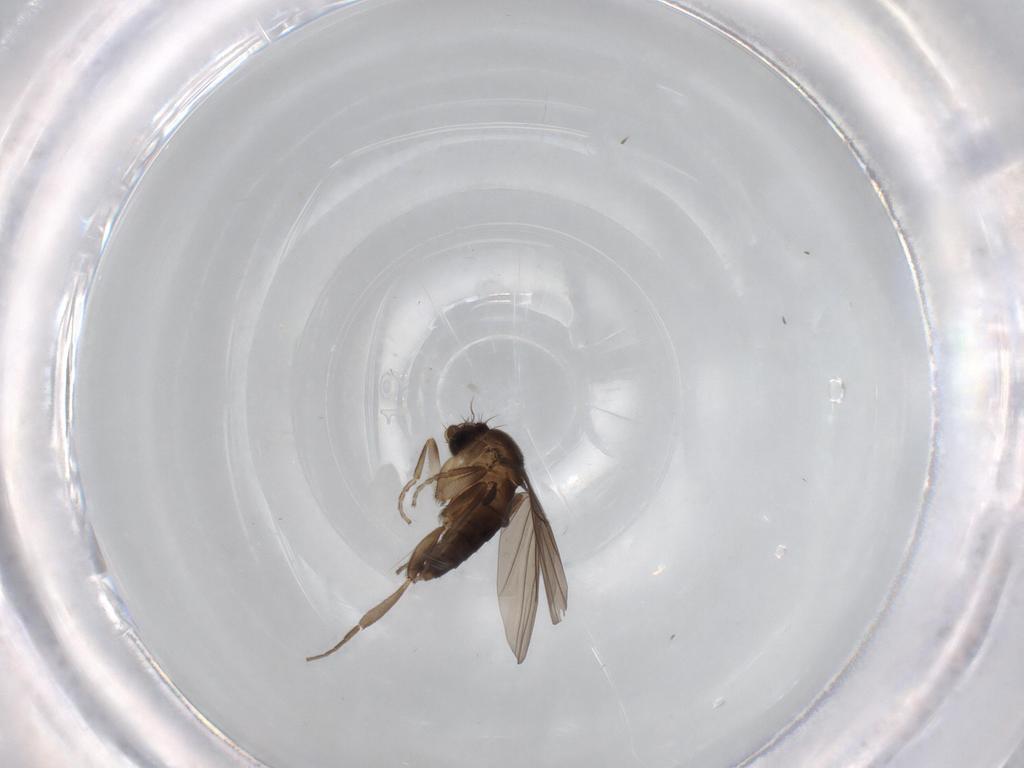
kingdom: Animalia
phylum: Arthropoda
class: Insecta
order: Diptera
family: Cecidomyiidae
